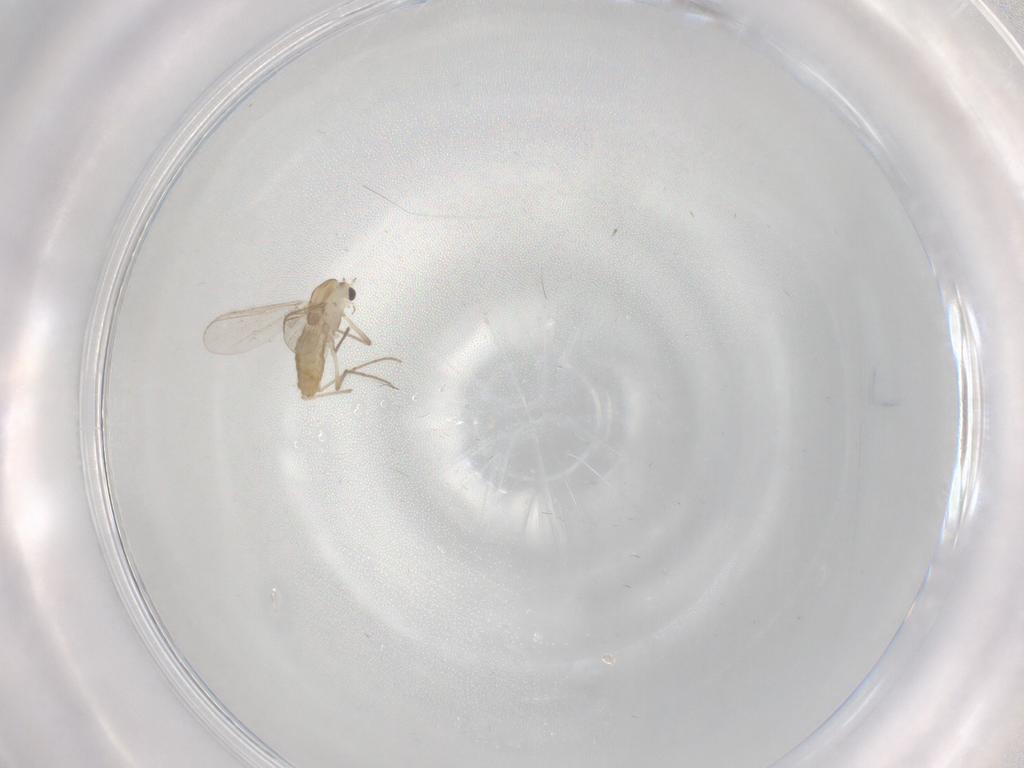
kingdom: Animalia
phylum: Arthropoda
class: Insecta
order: Diptera
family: Chironomidae
